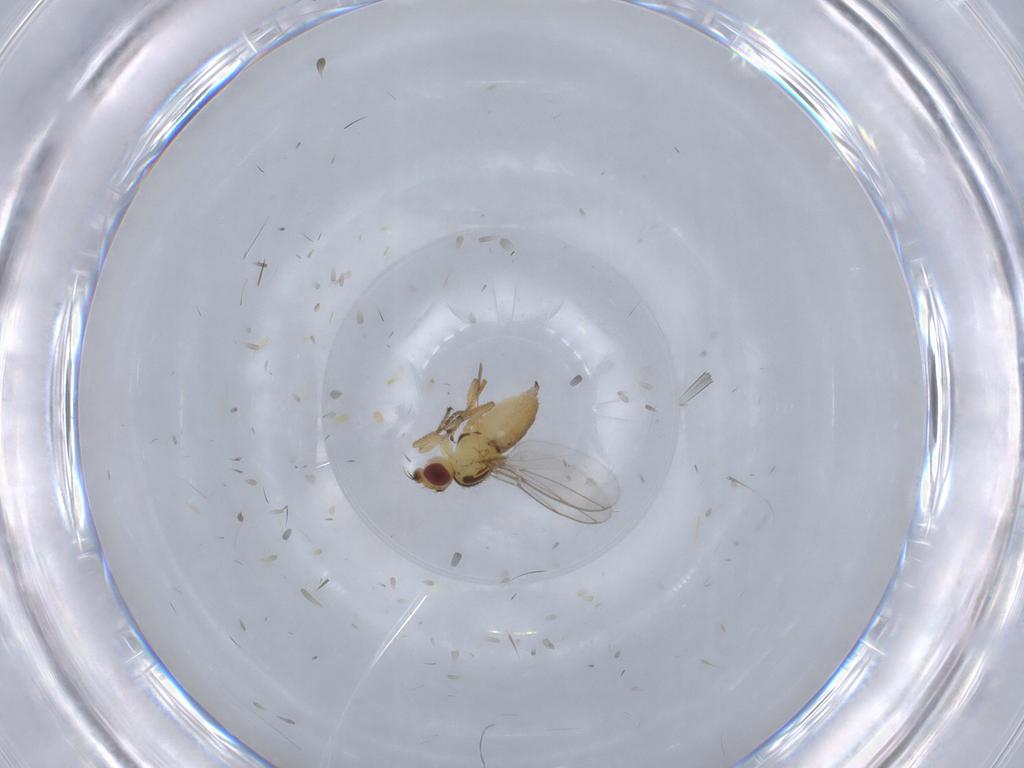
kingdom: Animalia
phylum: Arthropoda
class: Insecta
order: Diptera
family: Chloropidae
